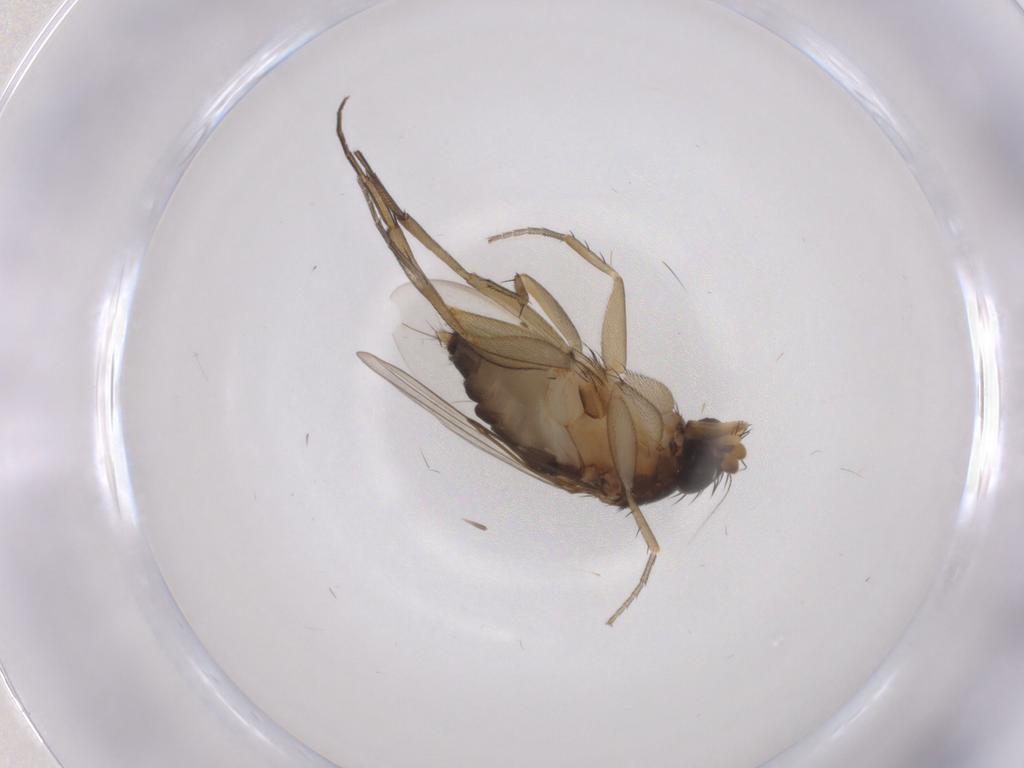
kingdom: Animalia
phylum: Arthropoda
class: Insecta
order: Diptera
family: Phoridae
